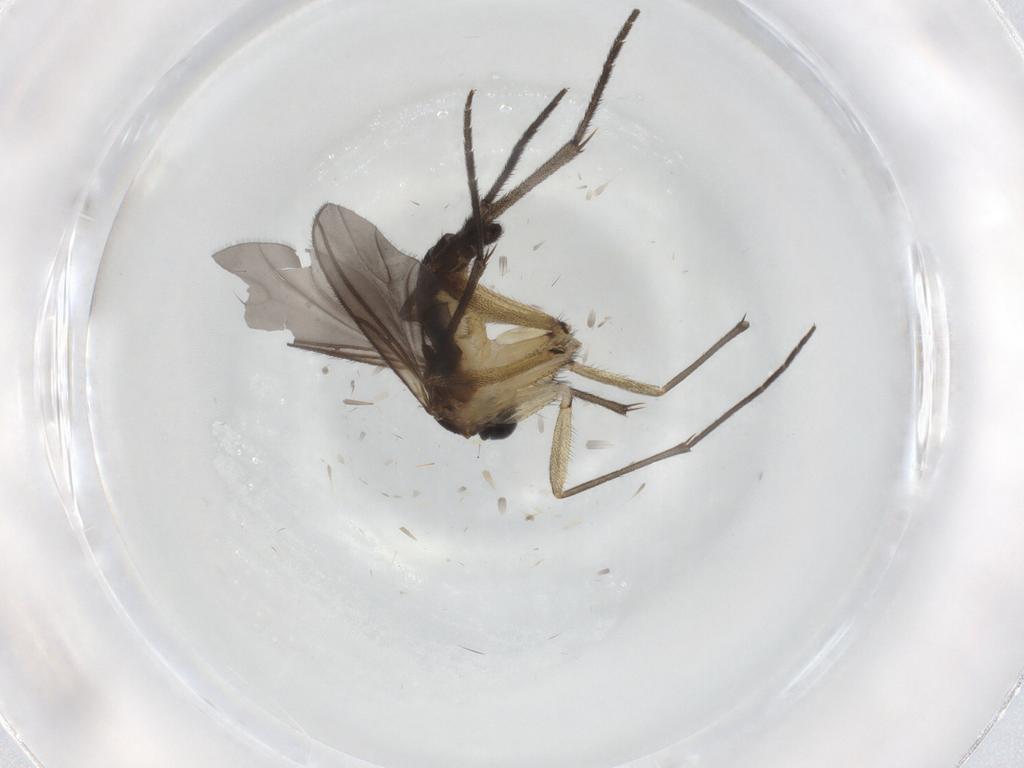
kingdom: Animalia
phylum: Arthropoda
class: Insecta
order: Diptera
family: Sciaridae
